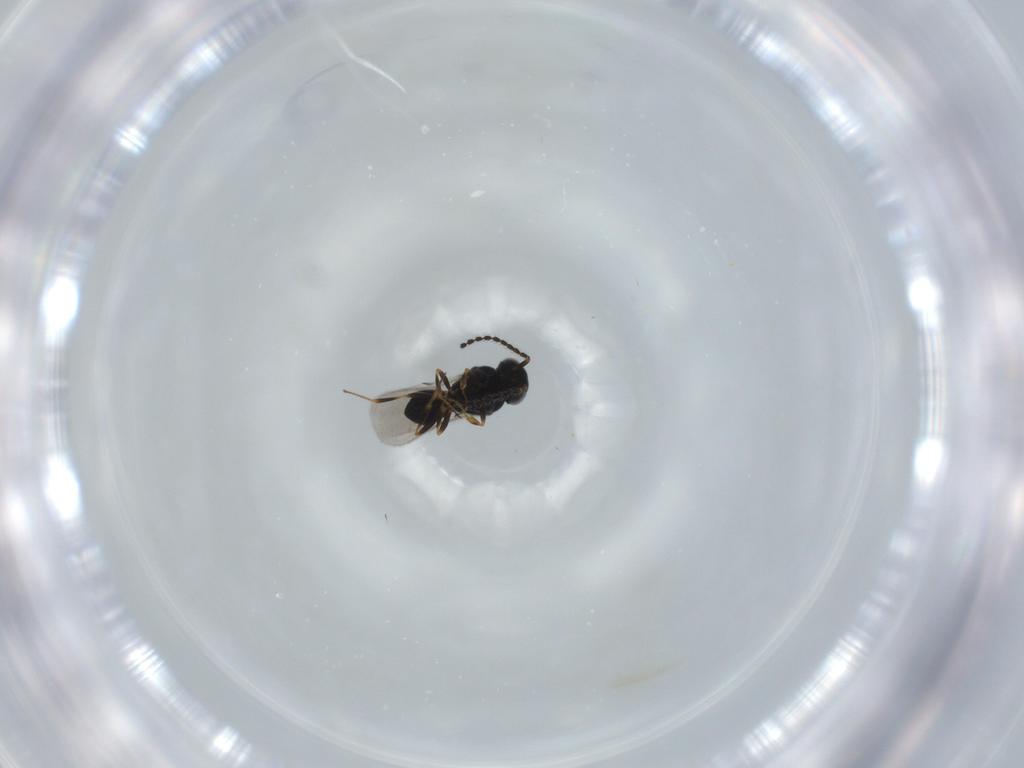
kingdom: Animalia
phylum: Arthropoda
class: Insecta
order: Hymenoptera
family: Scelionidae
